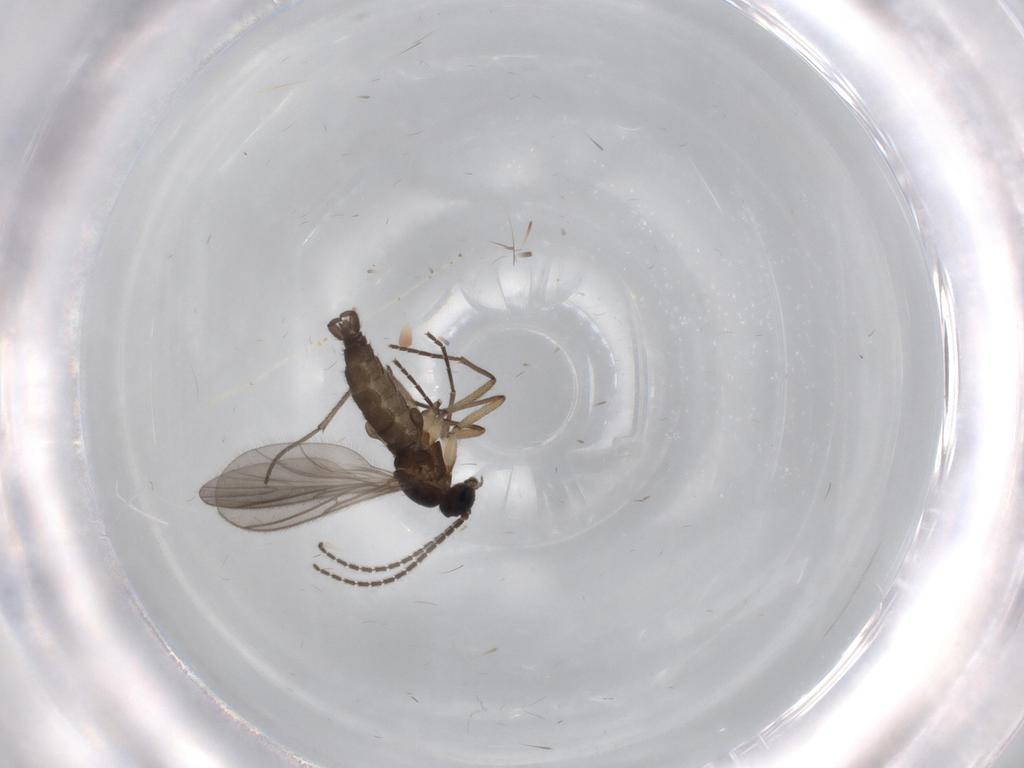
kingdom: Animalia
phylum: Arthropoda
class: Insecta
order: Diptera
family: Sciaridae
